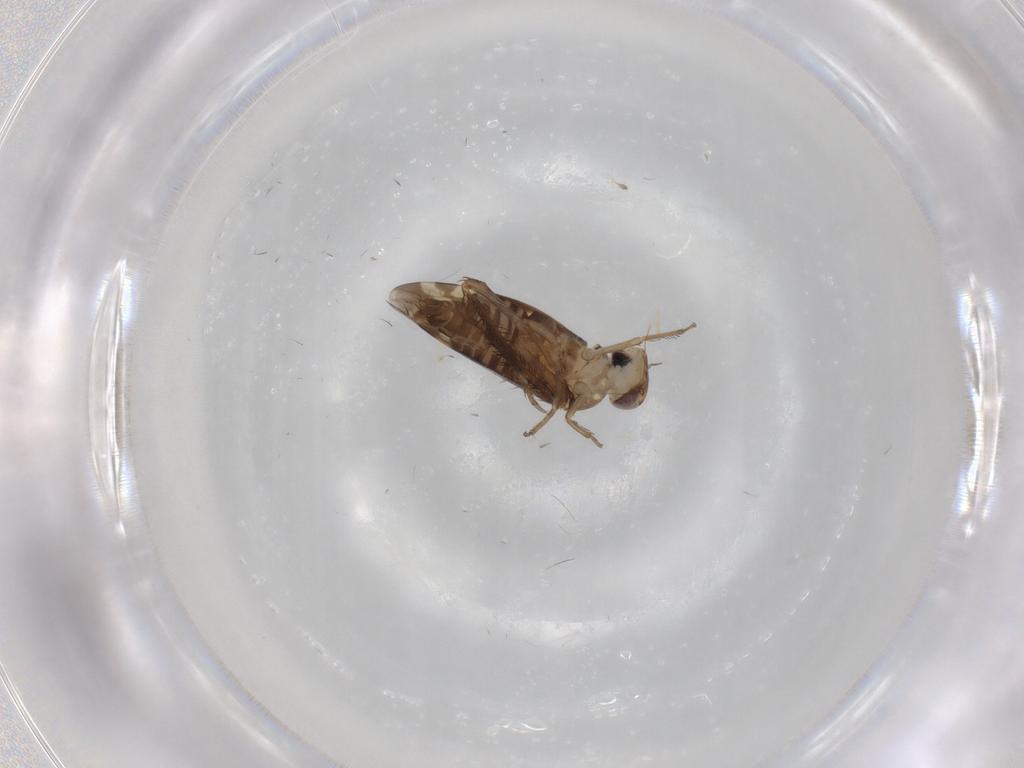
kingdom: Animalia
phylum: Arthropoda
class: Insecta
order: Hemiptera
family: Cicadellidae
